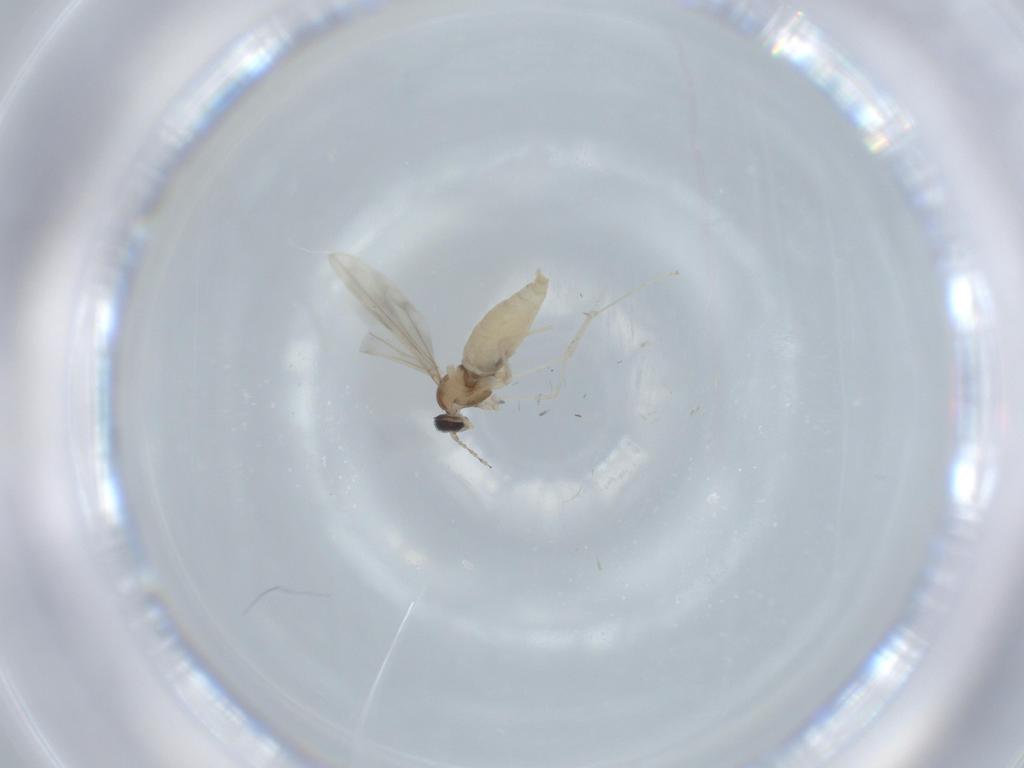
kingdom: Animalia
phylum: Arthropoda
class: Insecta
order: Diptera
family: Cecidomyiidae
